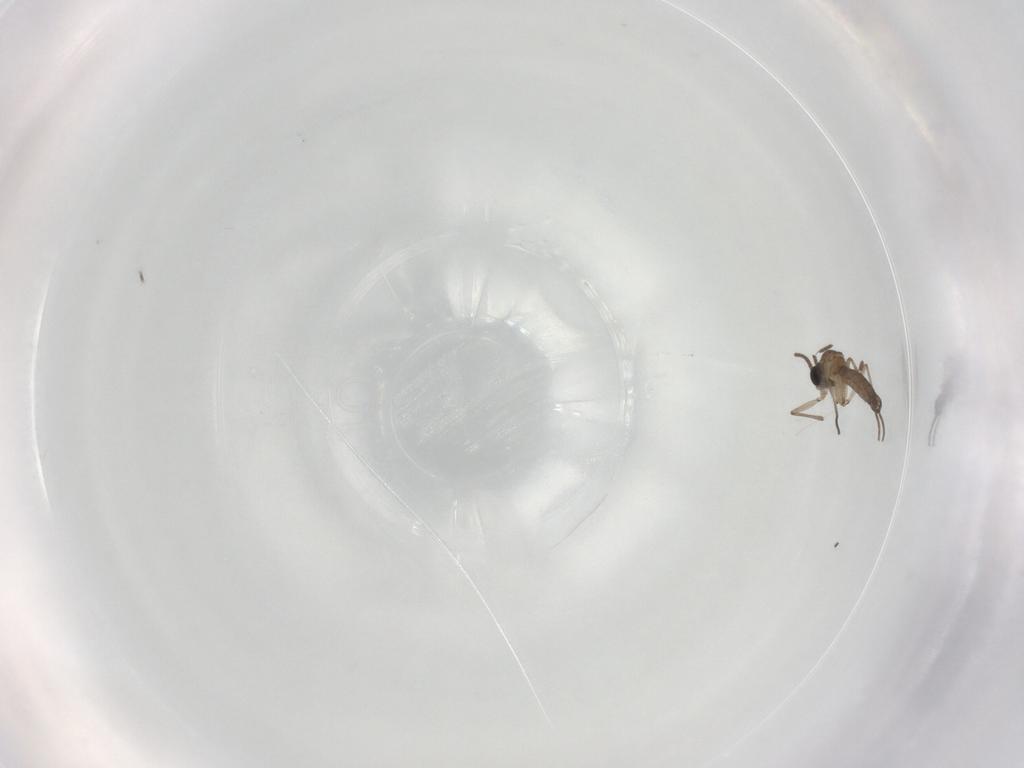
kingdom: Animalia
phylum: Arthropoda
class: Insecta
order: Diptera
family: Sciaridae
